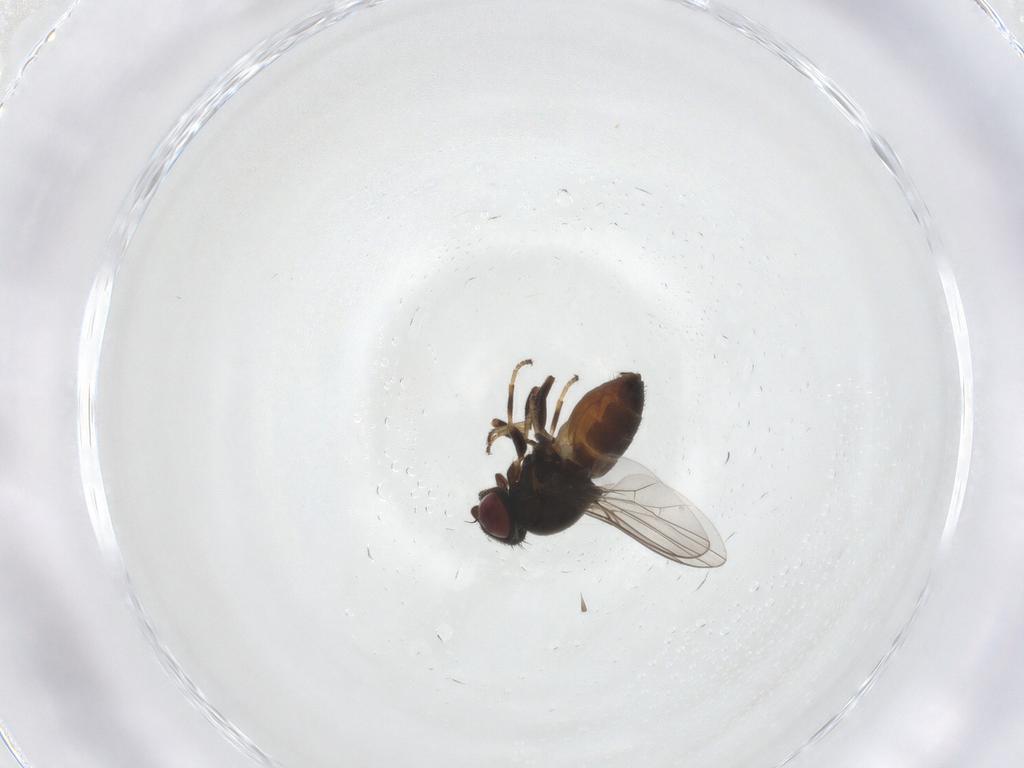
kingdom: Animalia
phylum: Arthropoda
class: Insecta
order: Diptera
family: Chloropidae
